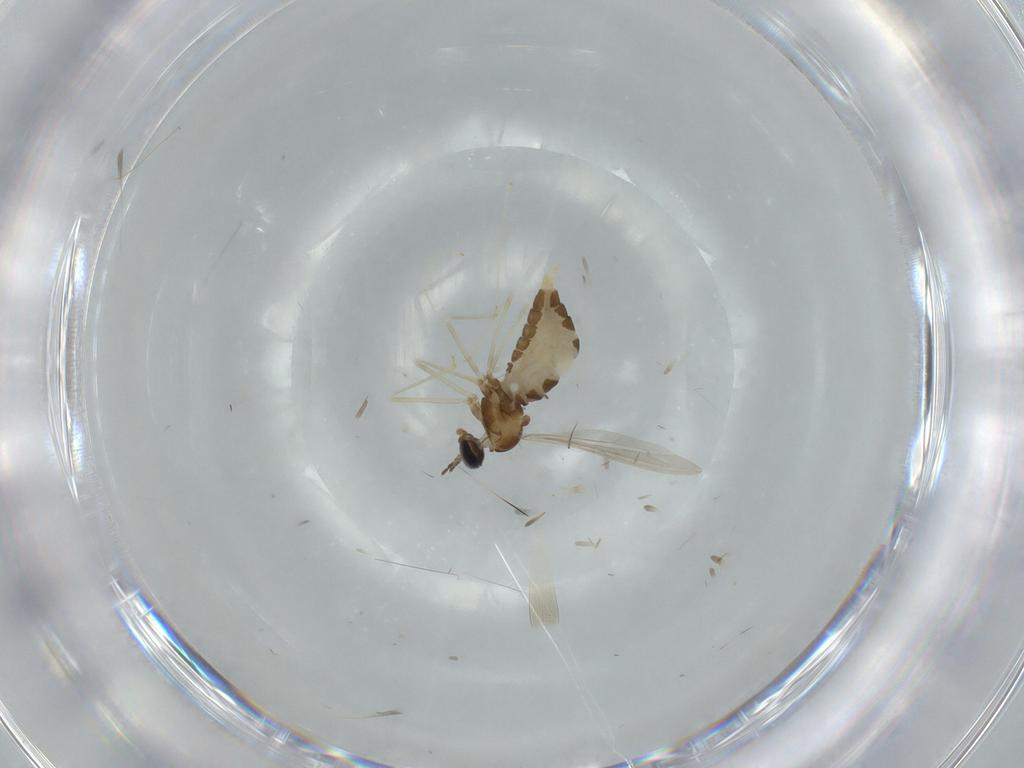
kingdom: Animalia
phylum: Arthropoda
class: Insecta
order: Diptera
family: Cecidomyiidae
